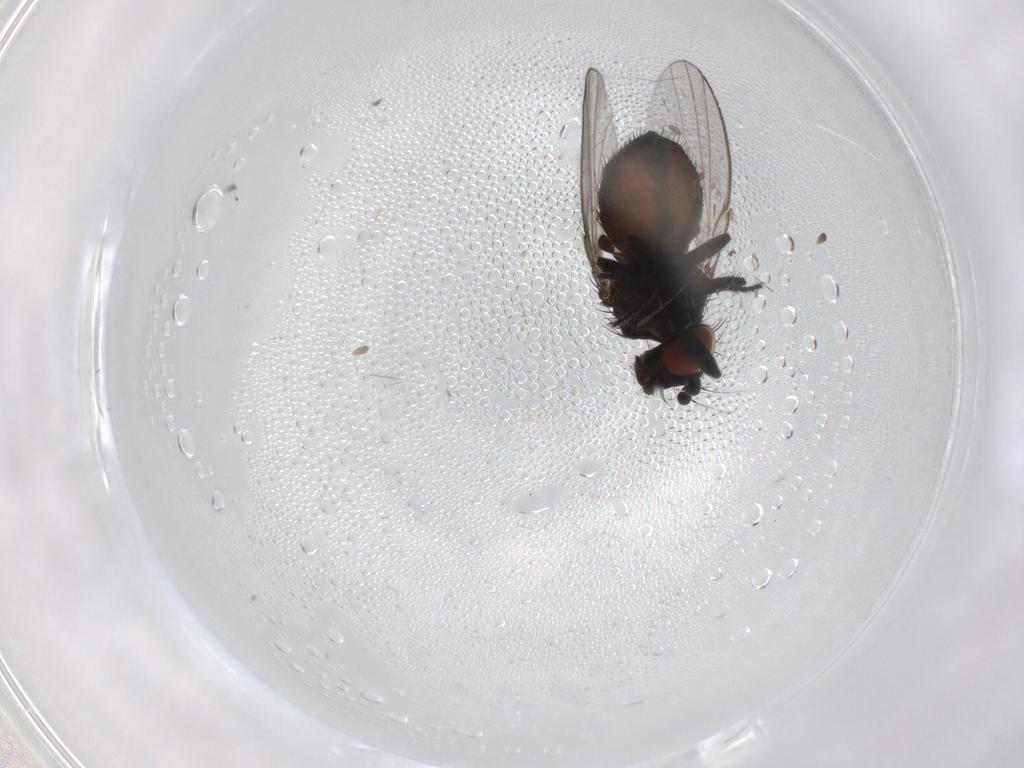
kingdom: Animalia
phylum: Arthropoda
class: Insecta
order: Diptera
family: Milichiidae
